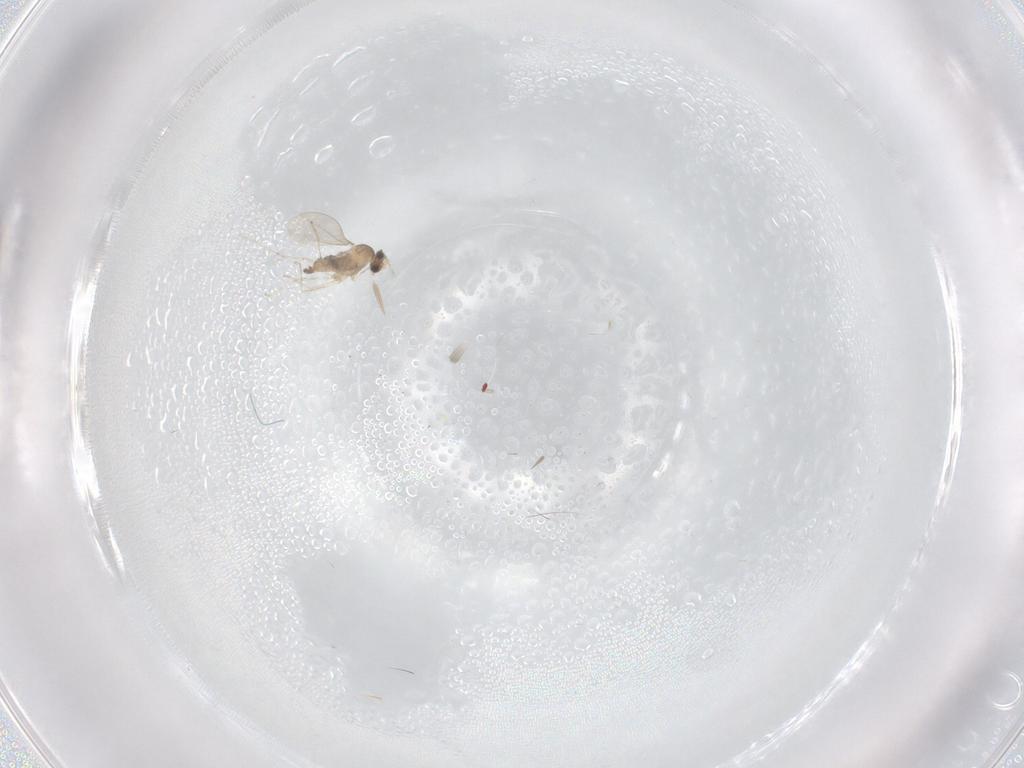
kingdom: Animalia
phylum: Arthropoda
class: Insecta
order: Diptera
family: Cecidomyiidae
